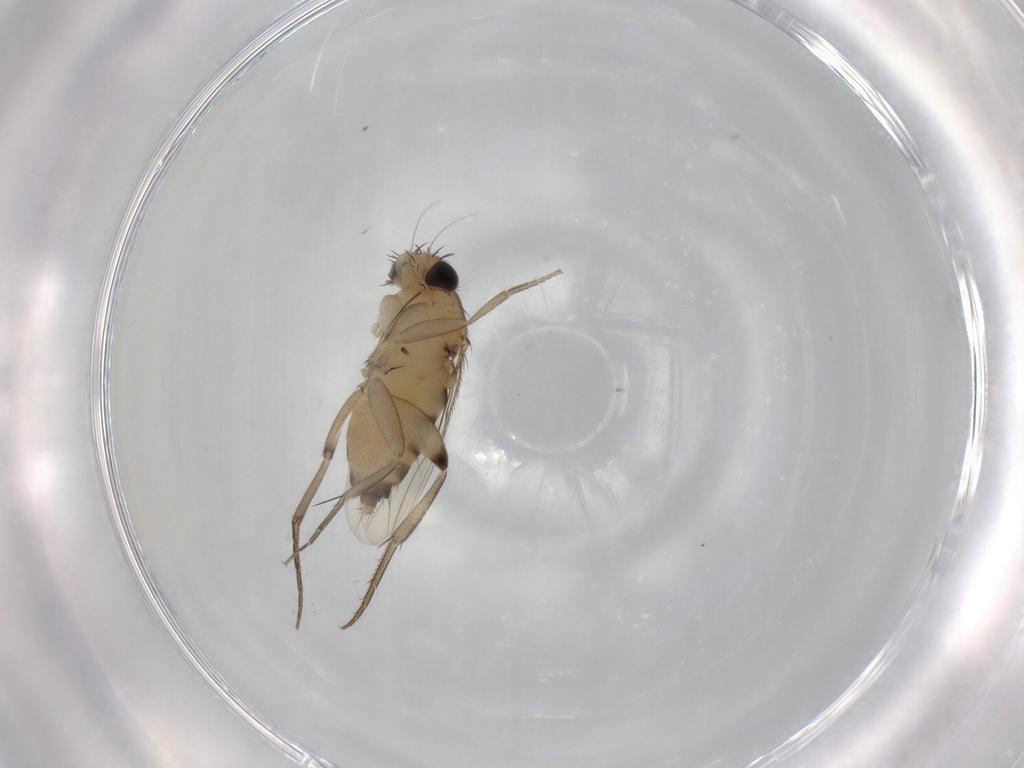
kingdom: Animalia
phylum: Arthropoda
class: Insecta
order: Diptera
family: Phoridae
